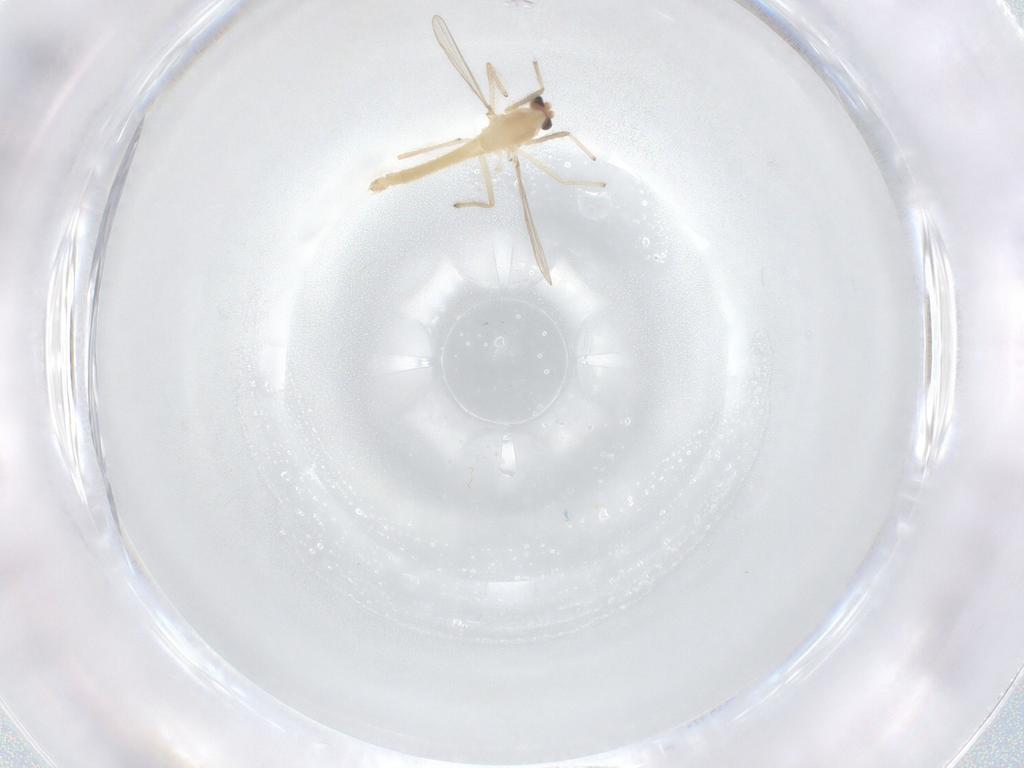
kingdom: Animalia
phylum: Arthropoda
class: Insecta
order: Diptera
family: Chironomidae
